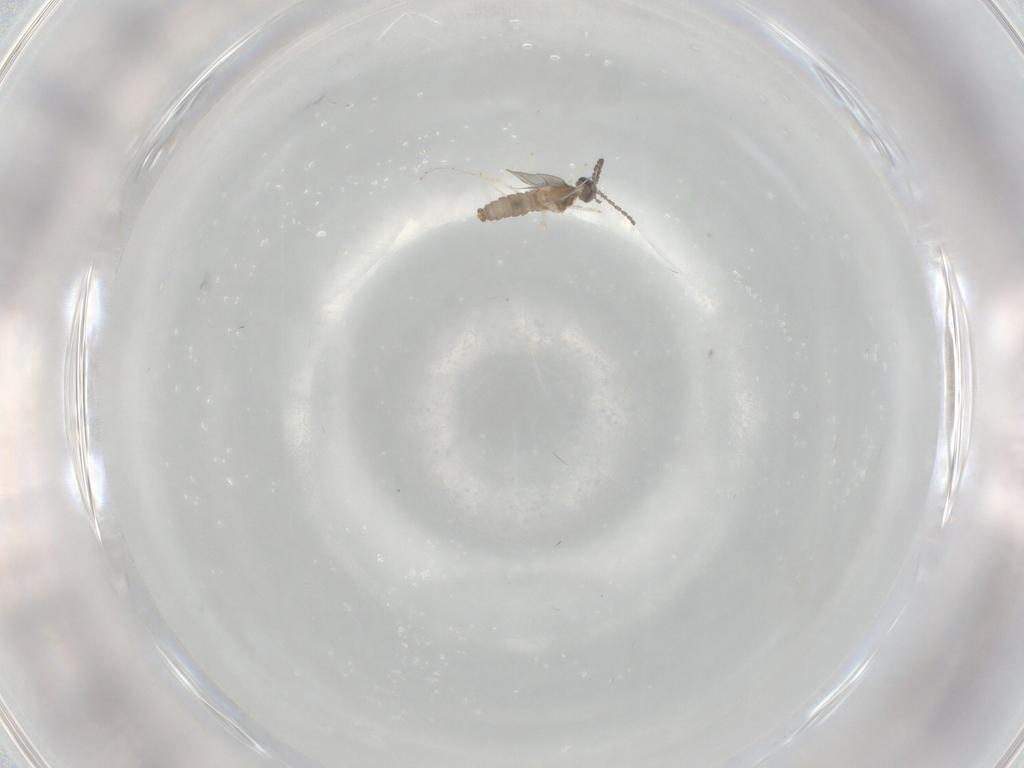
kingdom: Animalia
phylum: Arthropoda
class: Insecta
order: Diptera
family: Cecidomyiidae
